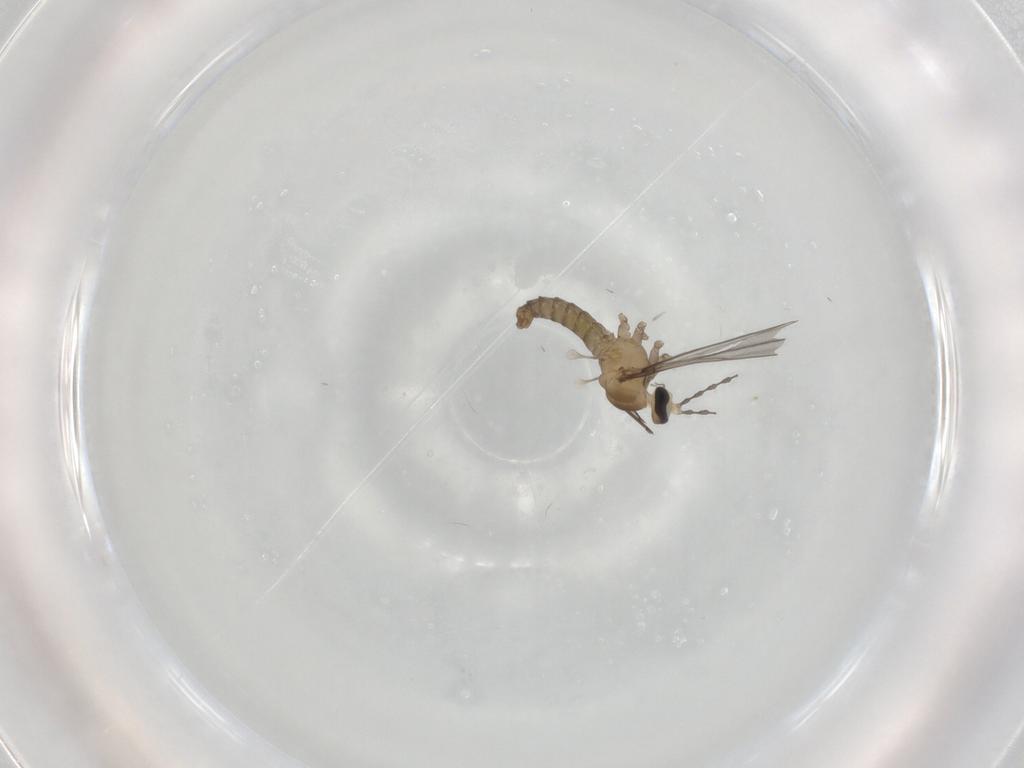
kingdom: Animalia
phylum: Arthropoda
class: Insecta
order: Diptera
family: Cecidomyiidae
